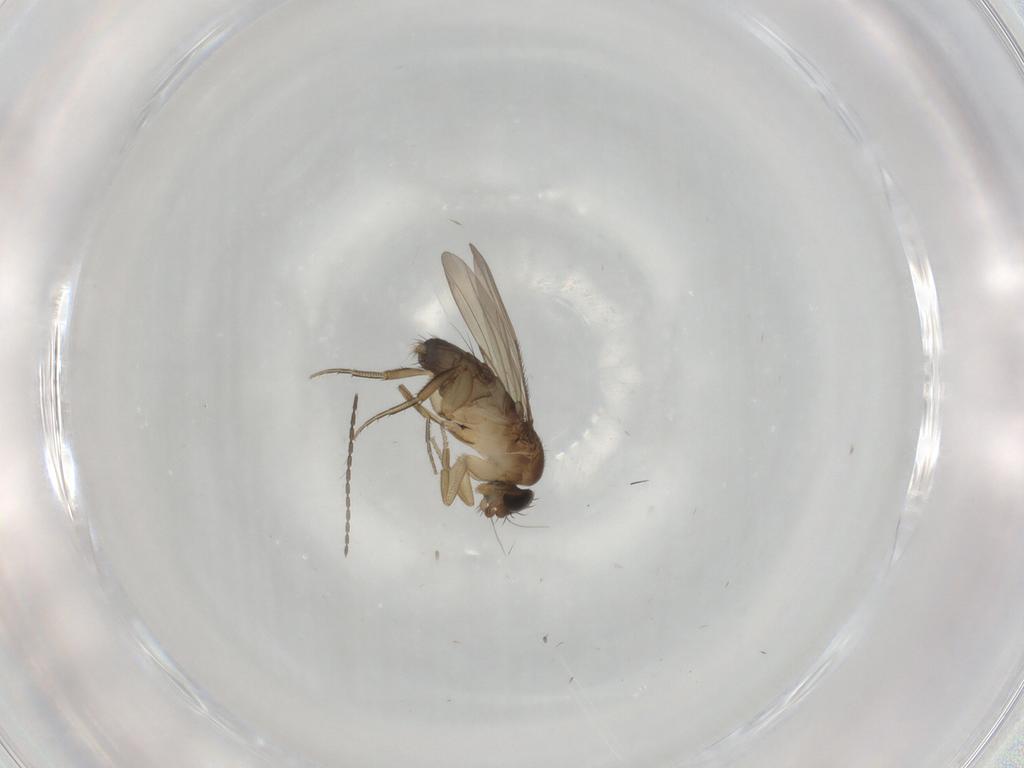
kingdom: Animalia
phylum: Arthropoda
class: Insecta
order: Diptera
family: Phoridae
